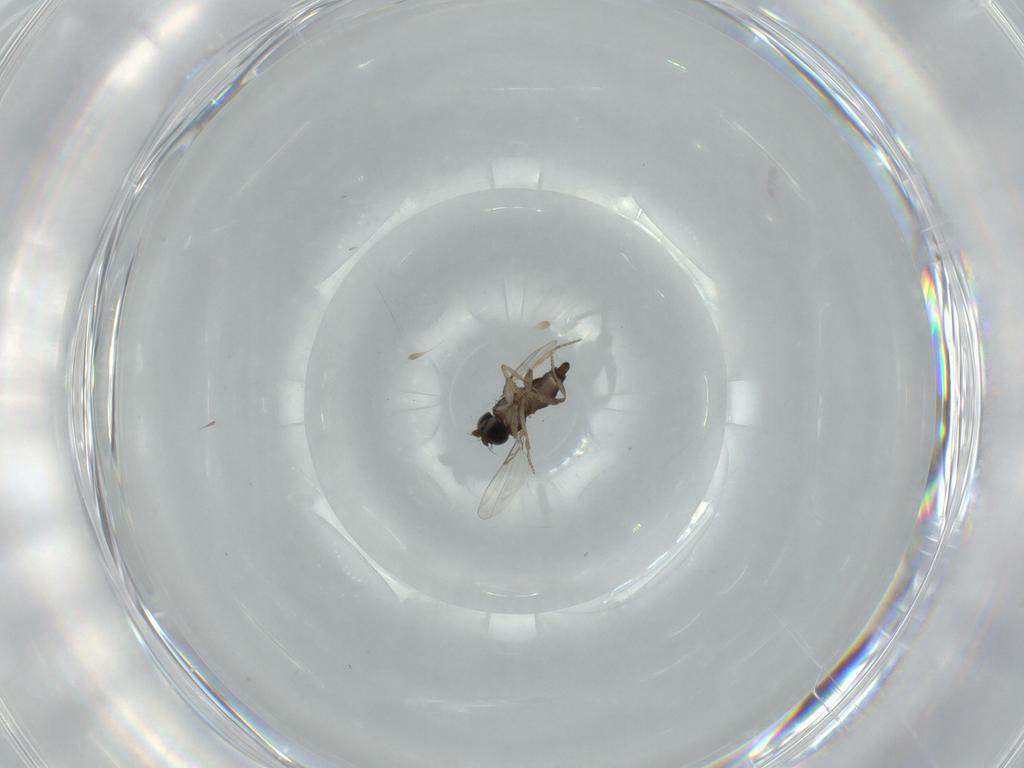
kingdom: Animalia
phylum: Arthropoda
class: Insecta
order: Diptera
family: Phoridae
